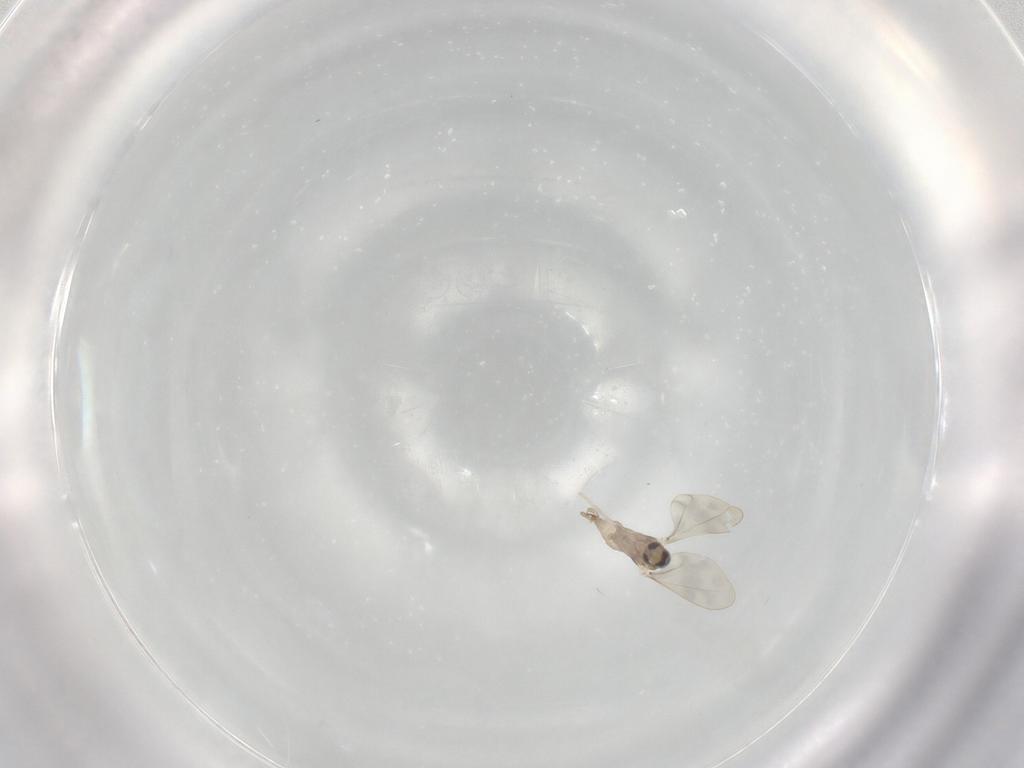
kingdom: Animalia
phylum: Arthropoda
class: Insecta
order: Diptera
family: Cecidomyiidae
